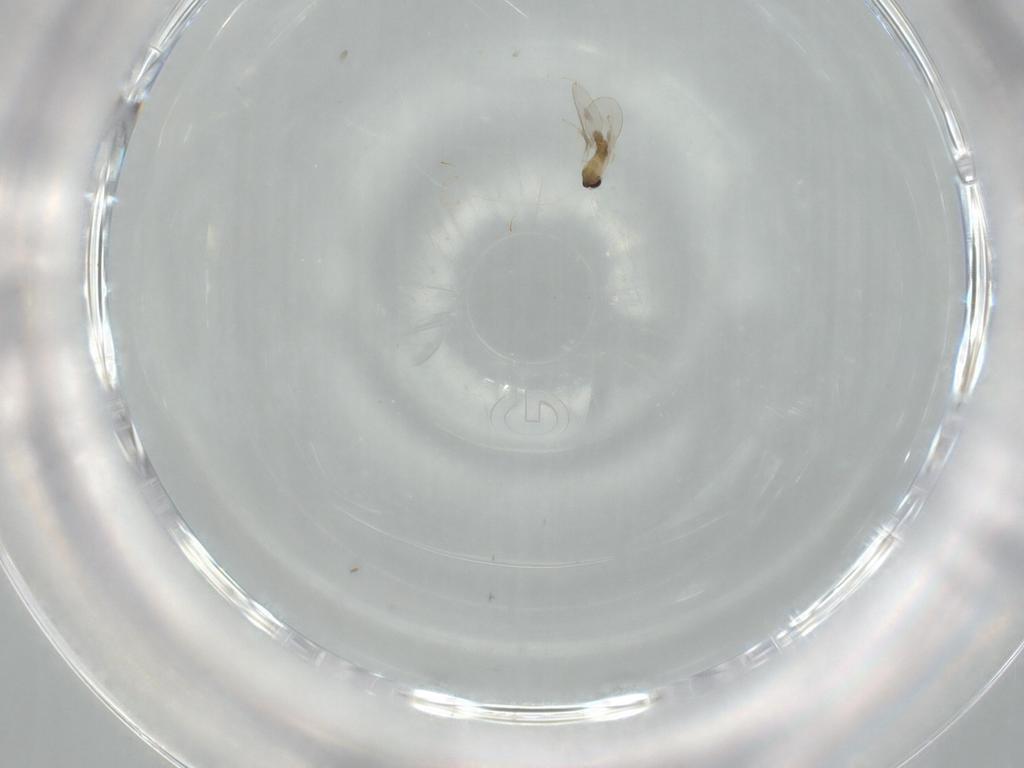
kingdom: Animalia
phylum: Arthropoda
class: Insecta
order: Diptera
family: Cecidomyiidae
